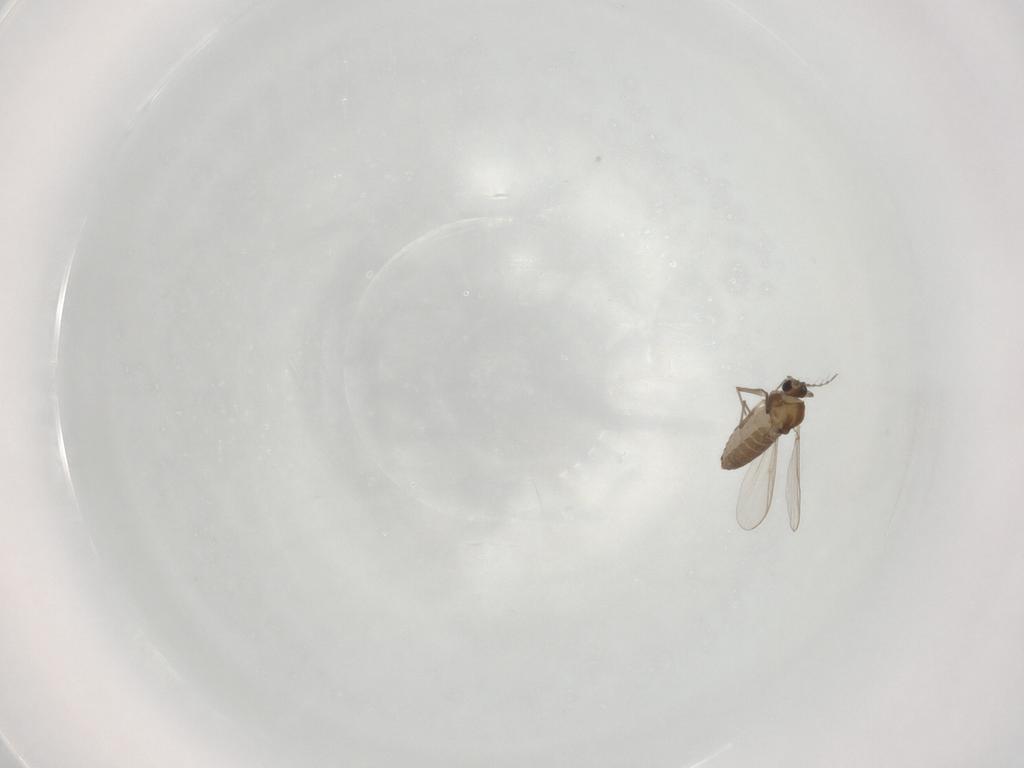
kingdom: Animalia
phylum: Arthropoda
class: Insecta
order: Diptera
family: Chironomidae
